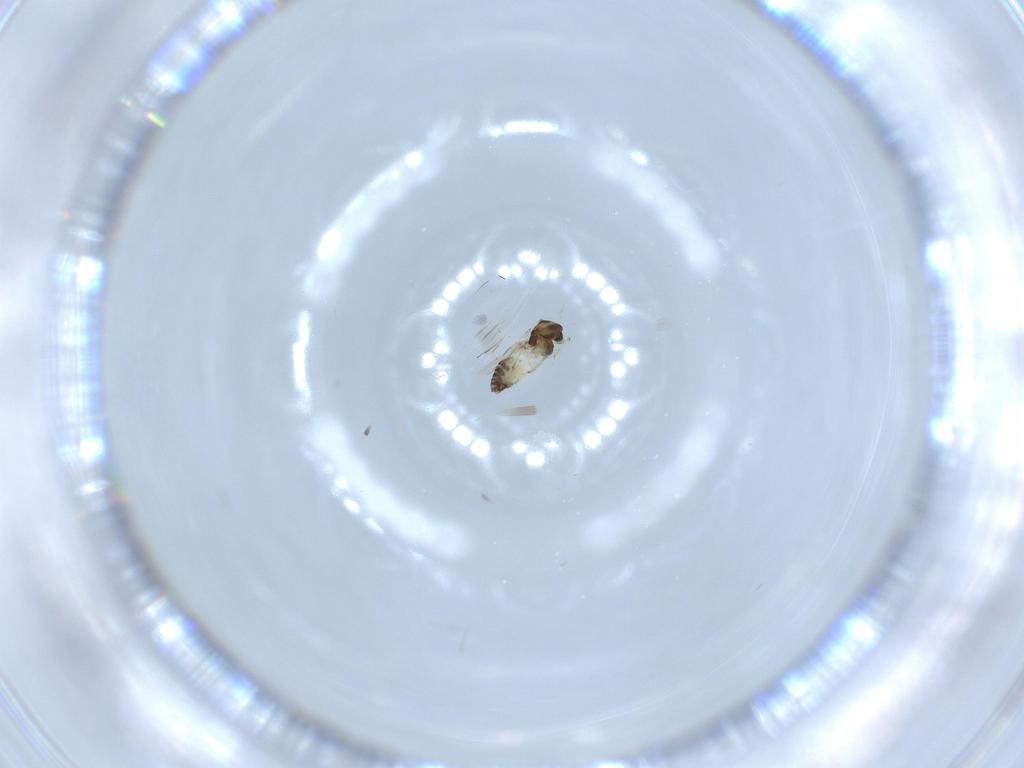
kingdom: Animalia
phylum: Arthropoda
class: Insecta
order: Diptera
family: Chironomidae
